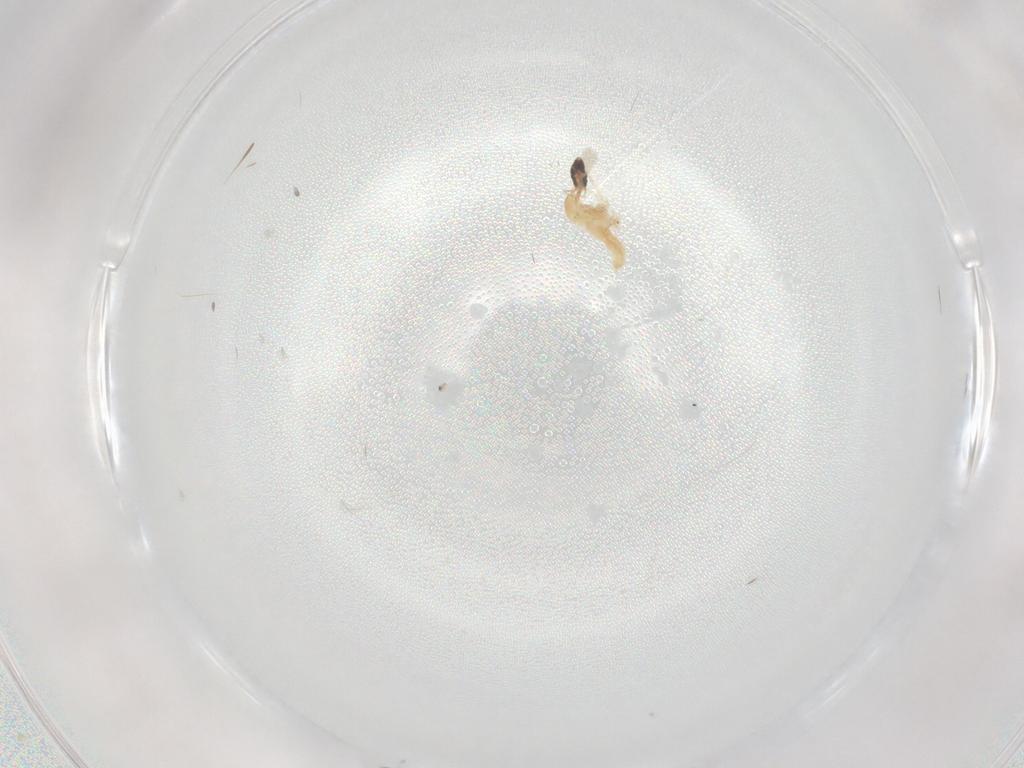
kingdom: Animalia
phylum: Arthropoda
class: Insecta
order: Diptera
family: Cecidomyiidae
